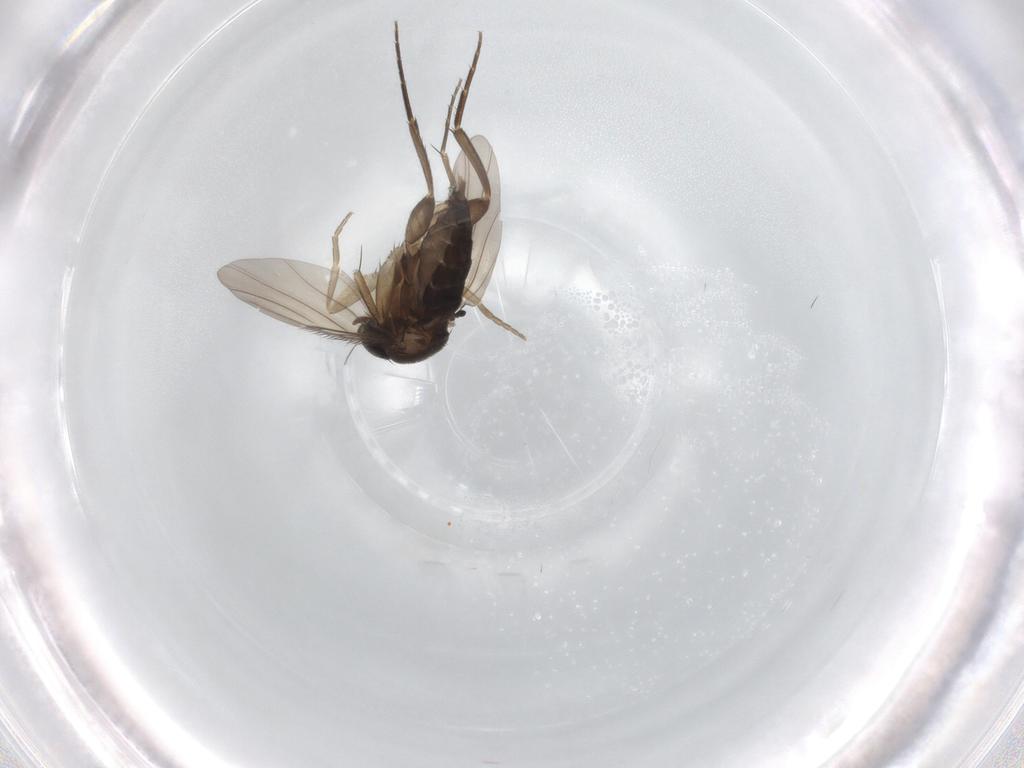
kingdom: Animalia
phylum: Arthropoda
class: Insecta
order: Diptera
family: Phoridae
